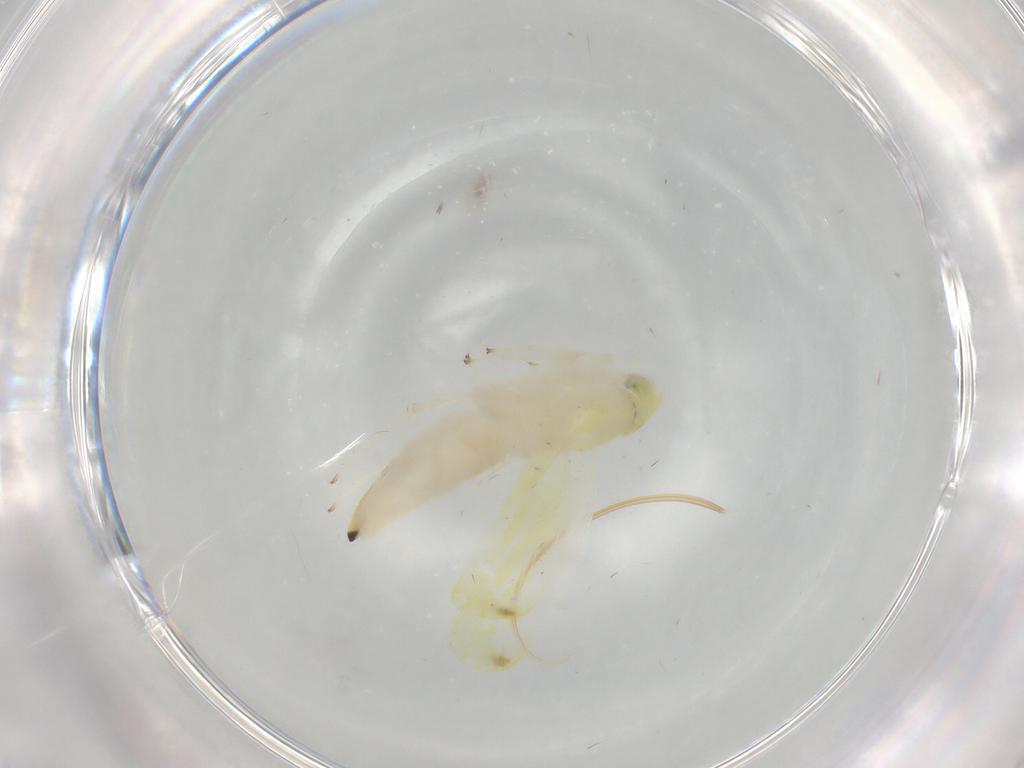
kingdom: Animalia
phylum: Arthropoda
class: Insecta
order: Hemiptera
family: Cicadellidae
